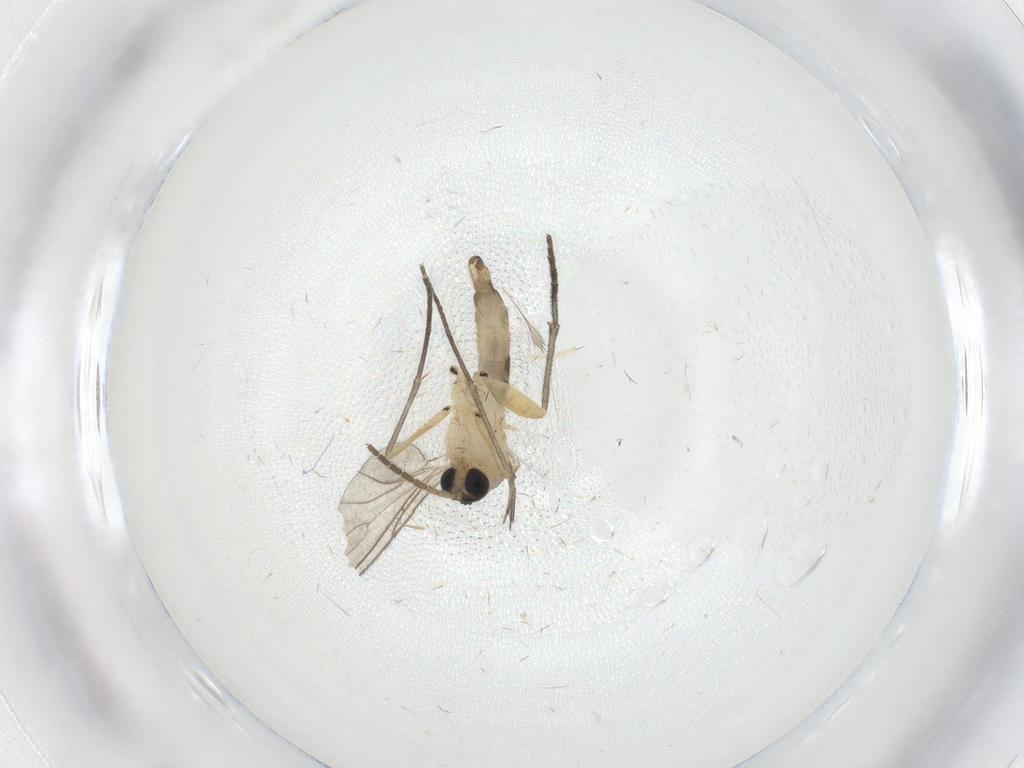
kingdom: Animalia
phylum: Arthropoda
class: Insecta
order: Diptera
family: Sciaridae
